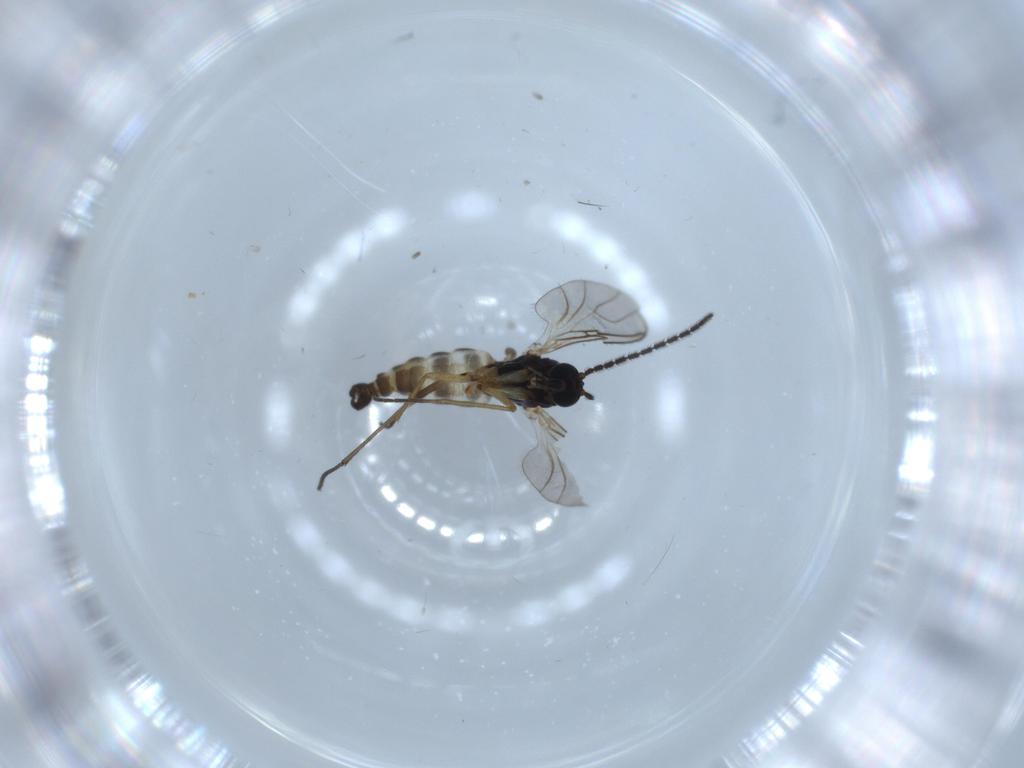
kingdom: Animalia
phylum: Arthropoda
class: Insecta
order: Diptera
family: Sciaridae
